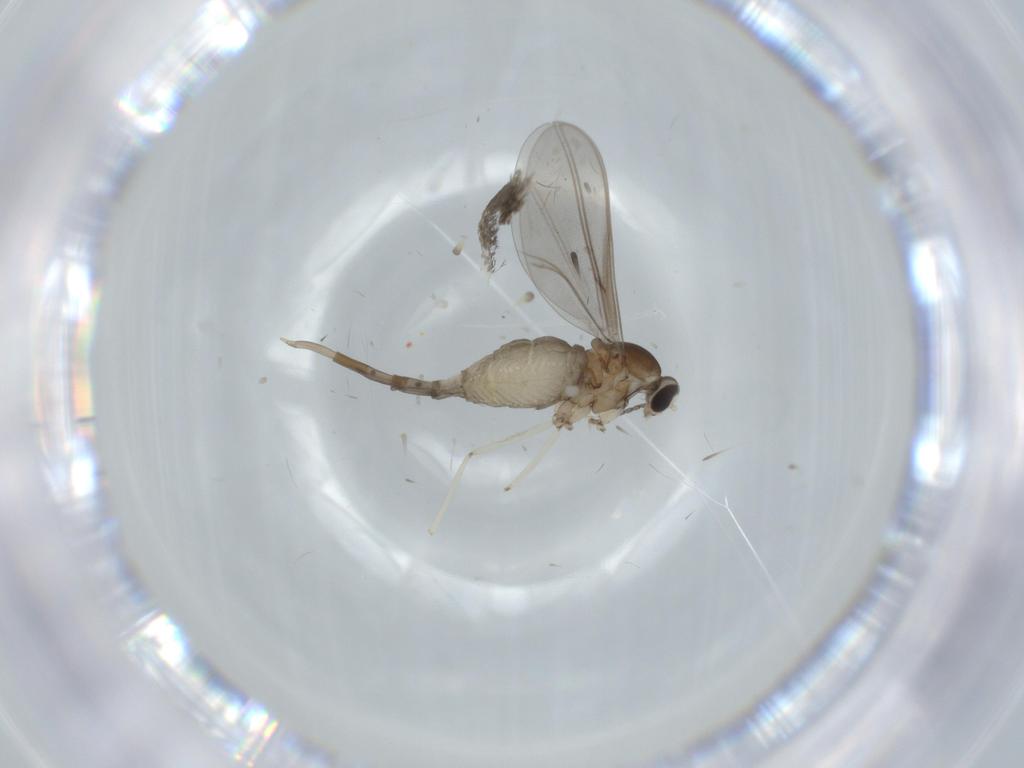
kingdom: Animalia
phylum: Arthropoda
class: Insecta
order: Diptera
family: Cecidomyiidae
